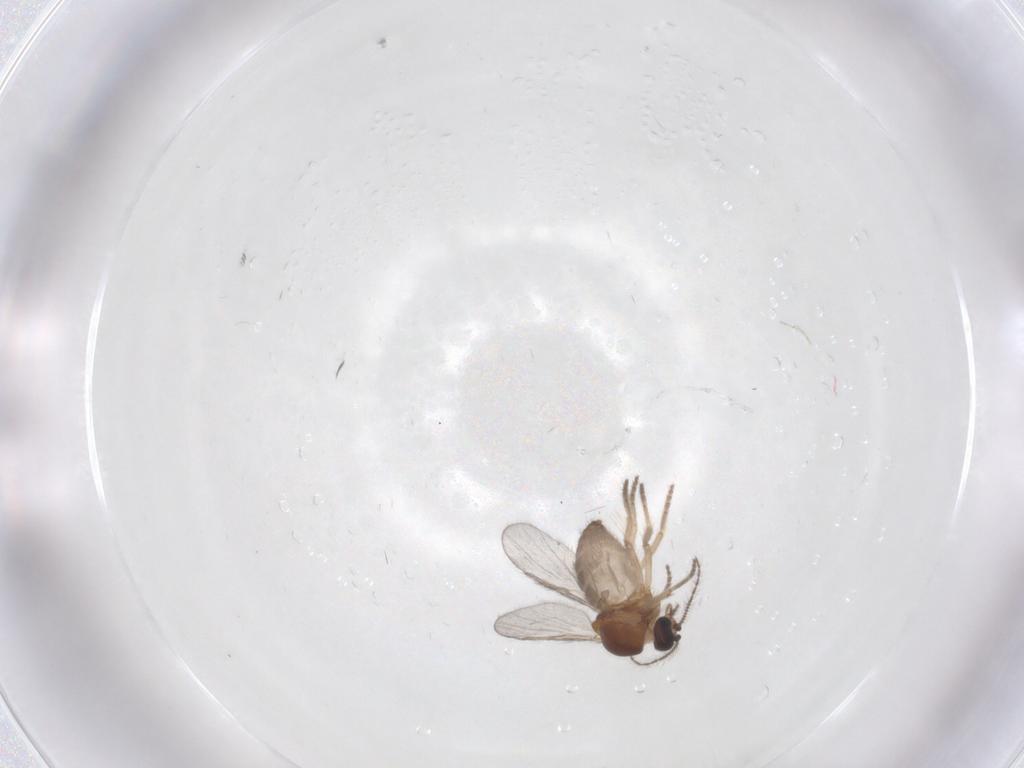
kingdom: Animalia
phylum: Arthropoda
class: Insecta
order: Diptera
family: Ceratopogonidae
